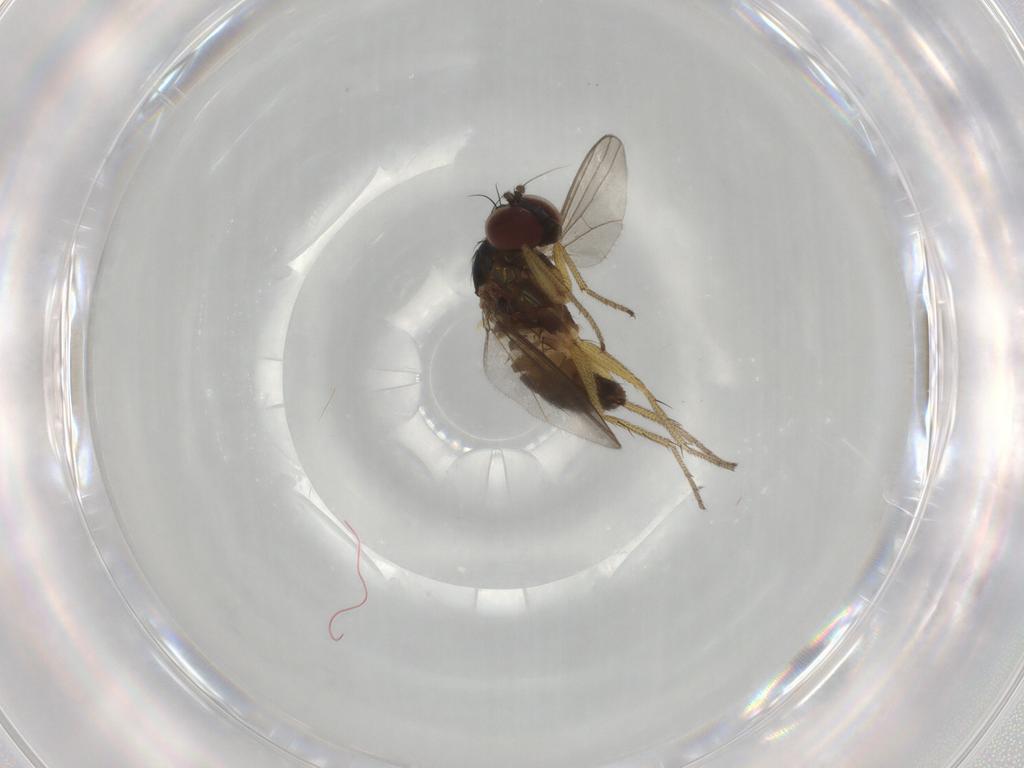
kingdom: Animalia
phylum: Arthropoda
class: Insecta
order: Diptera
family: Dolichopodidae
